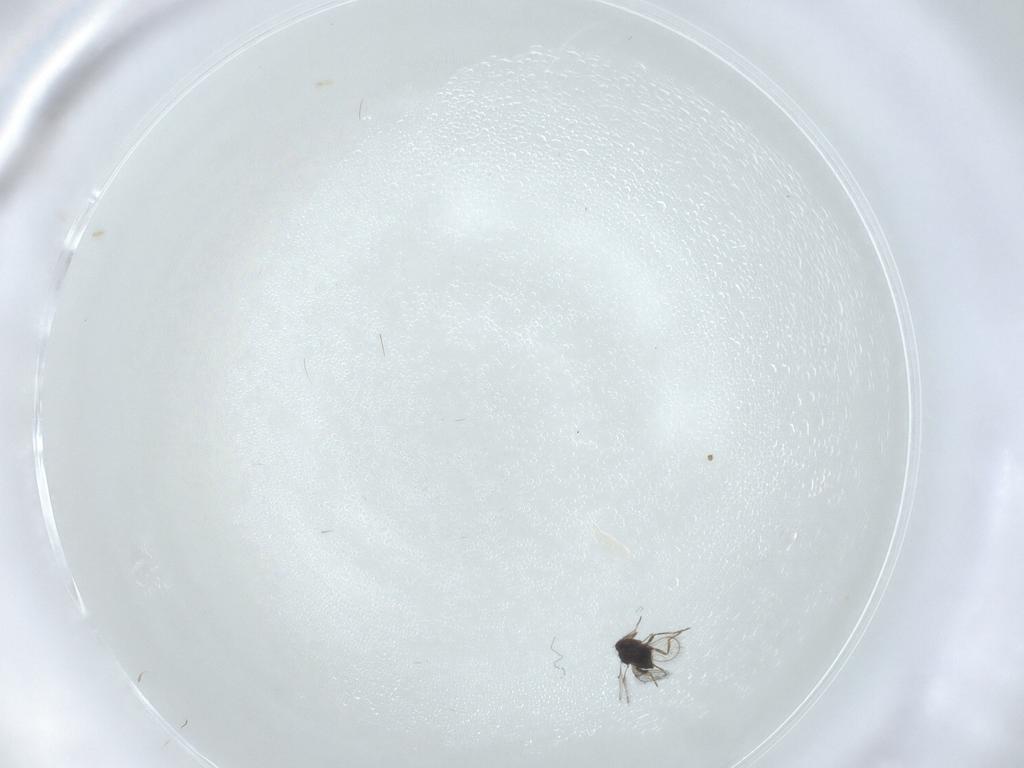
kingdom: Animalia
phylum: Arthropoda
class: Insecta
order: Hymenoptera
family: Trichogrammatidae
